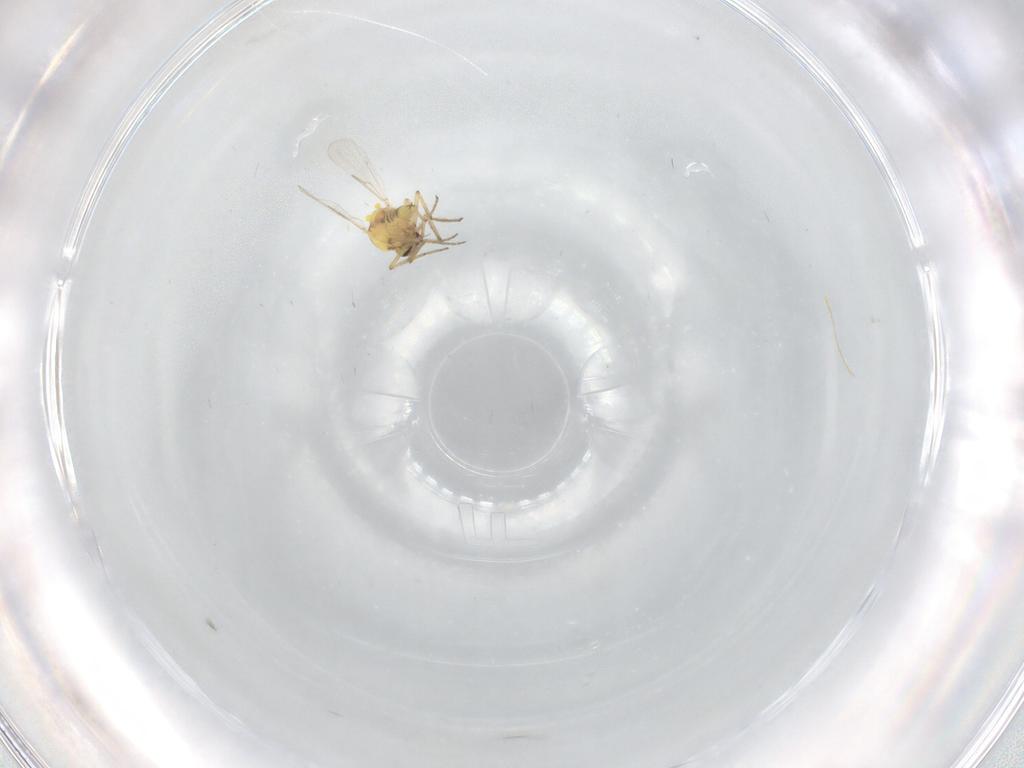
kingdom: Animalia
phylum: Arthropoda
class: Insecta
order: Diptera
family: Ceratopogonidae
